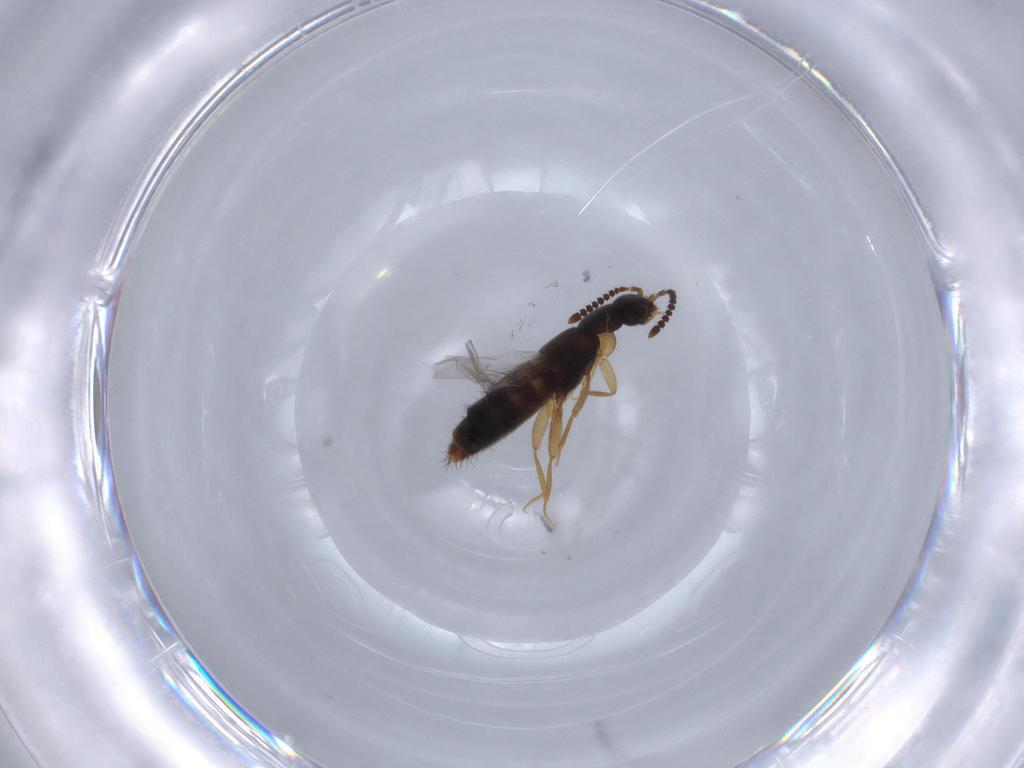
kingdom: Animalia
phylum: Arthropoda
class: Insecta
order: Coleoptera
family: Staphylinidae
